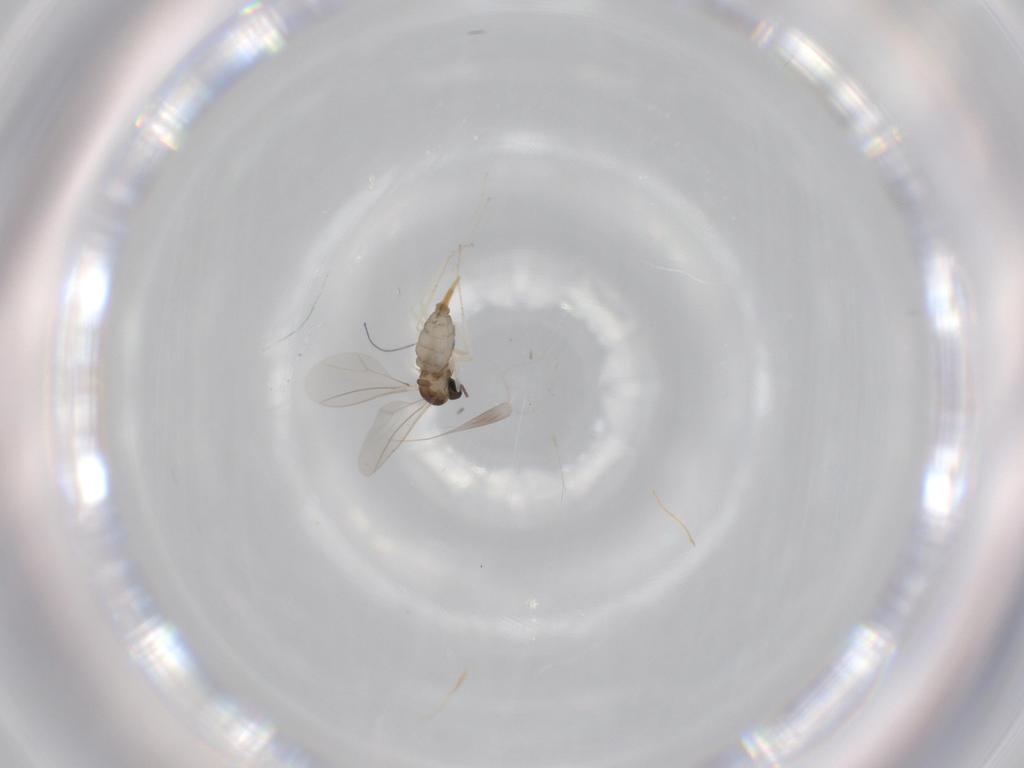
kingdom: Animalia
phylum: Arthropoda
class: Insecta
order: Diptera
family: Cecidomyiidae
